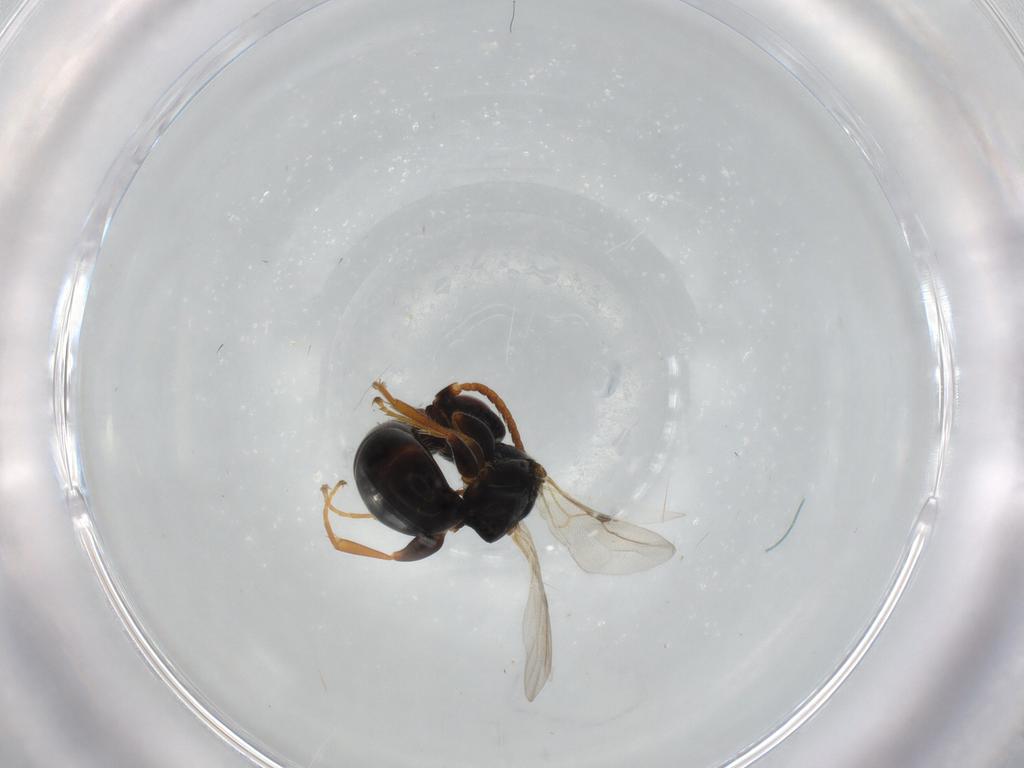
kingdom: Animalia
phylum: Arthropoda
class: Insecta
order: Hymenoptera
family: Bethylidae
